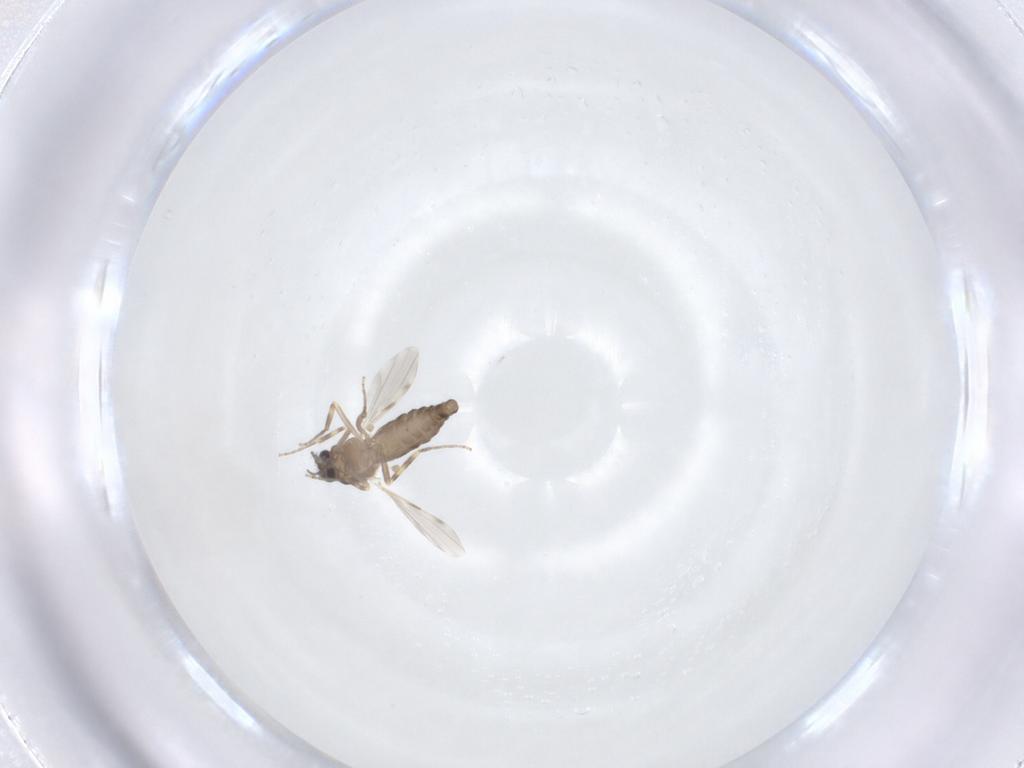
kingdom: Animalia
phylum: Arthropoda
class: Insecta
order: Diptera
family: Ceratopogonidae
